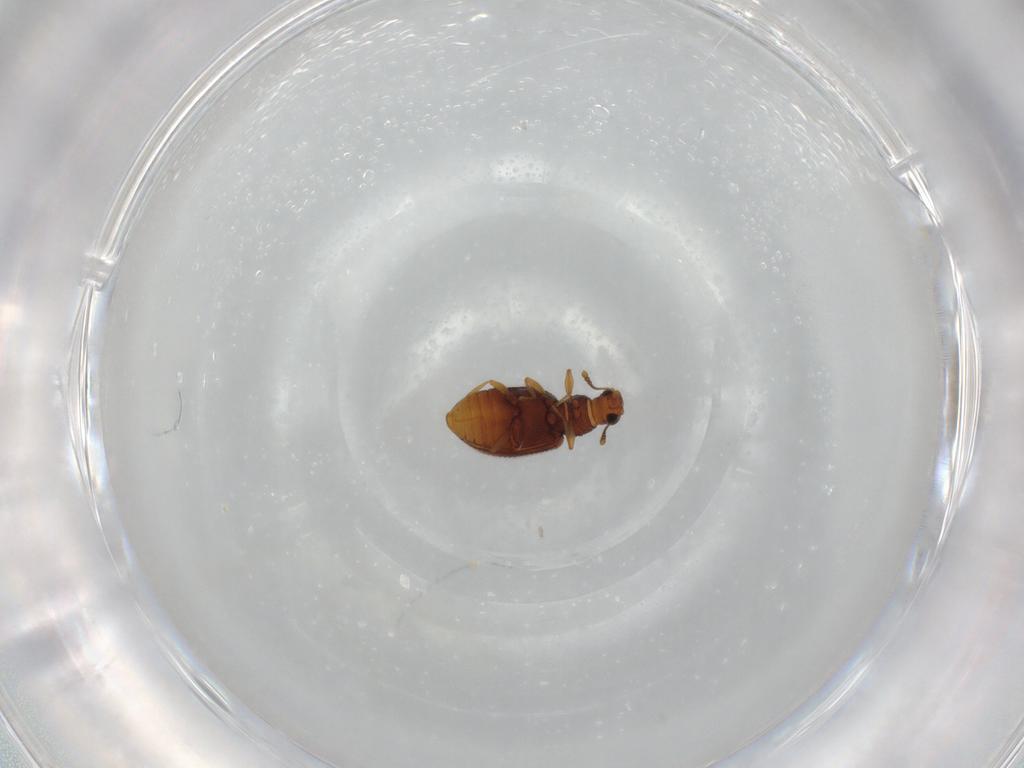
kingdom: Animalia
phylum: Arthropoda
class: Insecta
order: Coleoptera
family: Latridiidae
